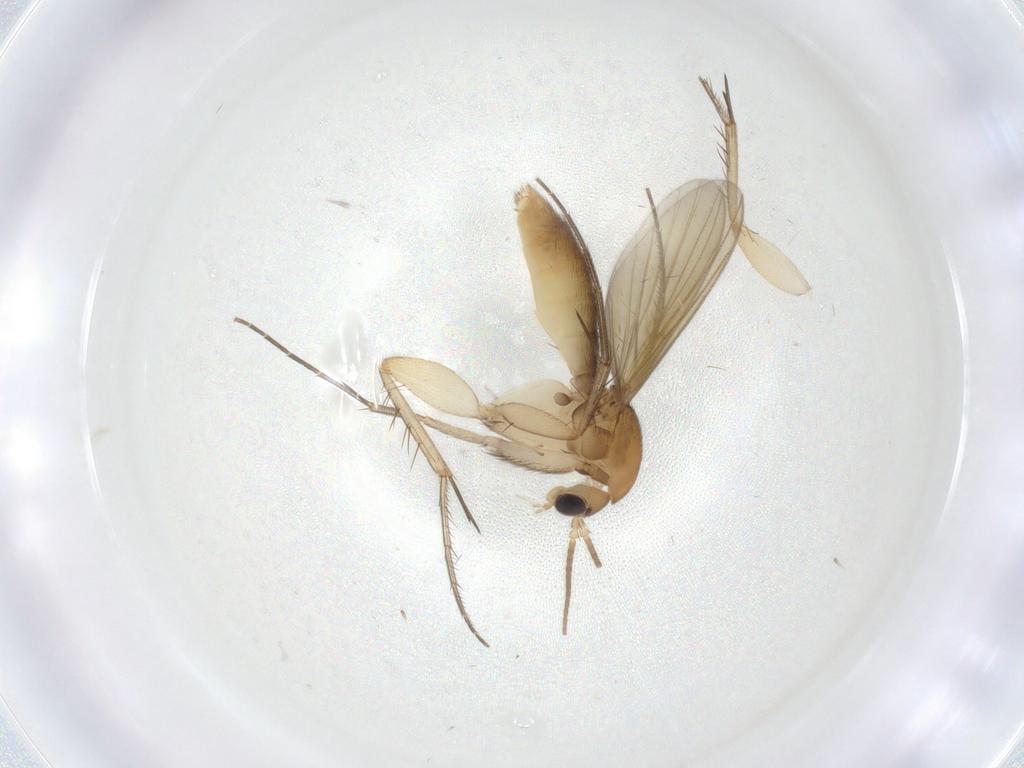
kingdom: Animalia
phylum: Arthropoda
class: Insecta
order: Diptera
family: Mycetophilidae
